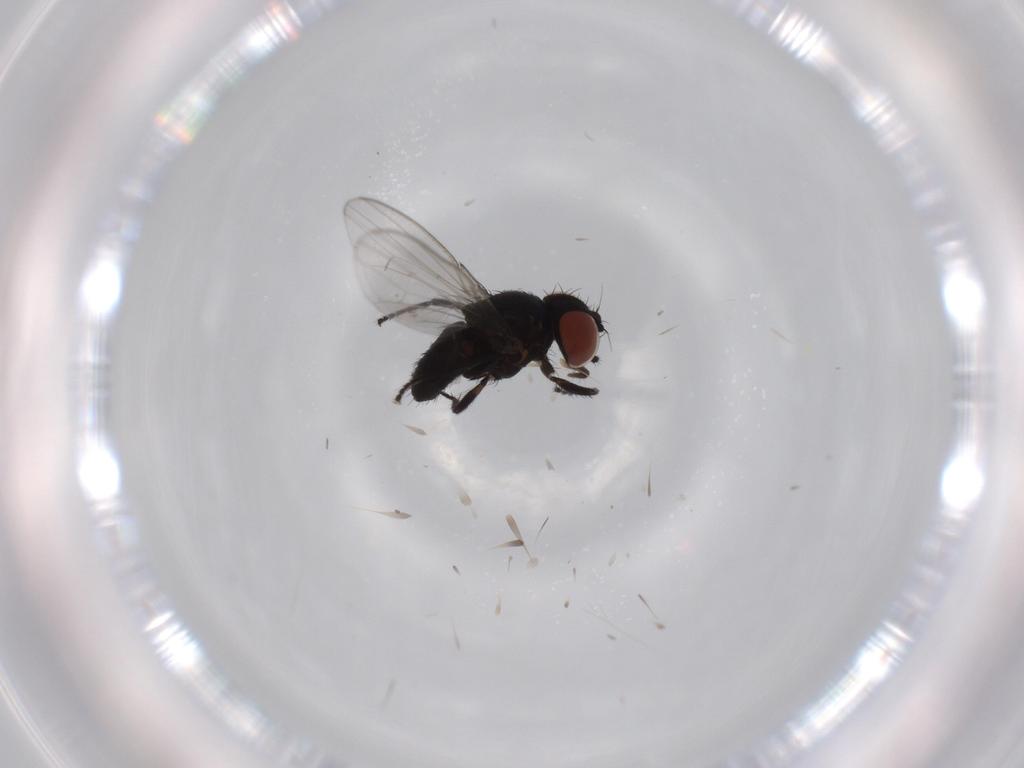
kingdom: Animalia
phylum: Arthropoda
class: Insecta
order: Diptera
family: Milichiidae
